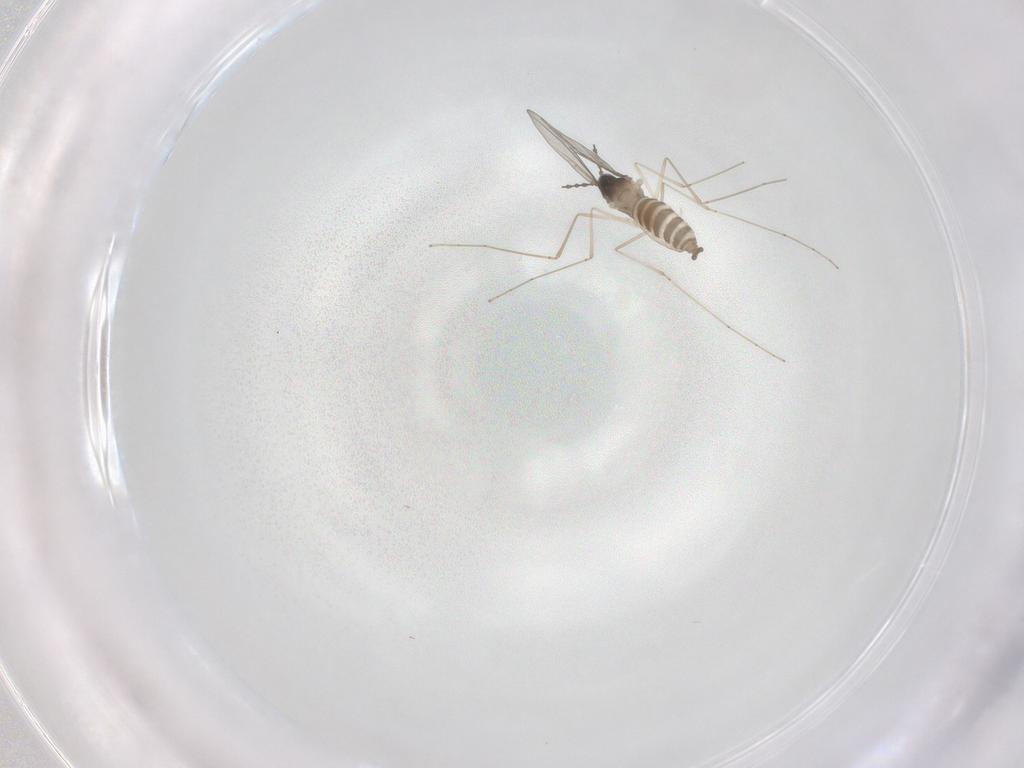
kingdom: Animalia
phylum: Arthropoda
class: Insecta
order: Diptera
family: Cecidomyiidae
